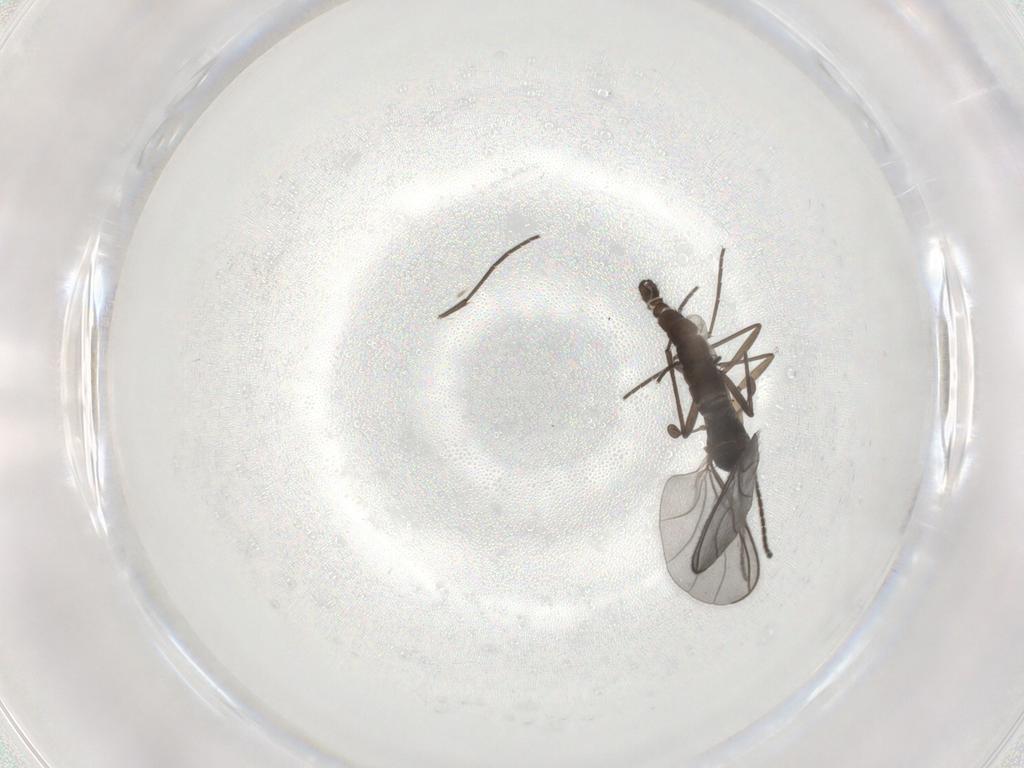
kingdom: Animalia
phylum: Arthropoda
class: Insecta
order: Diptera
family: Sciaridae
